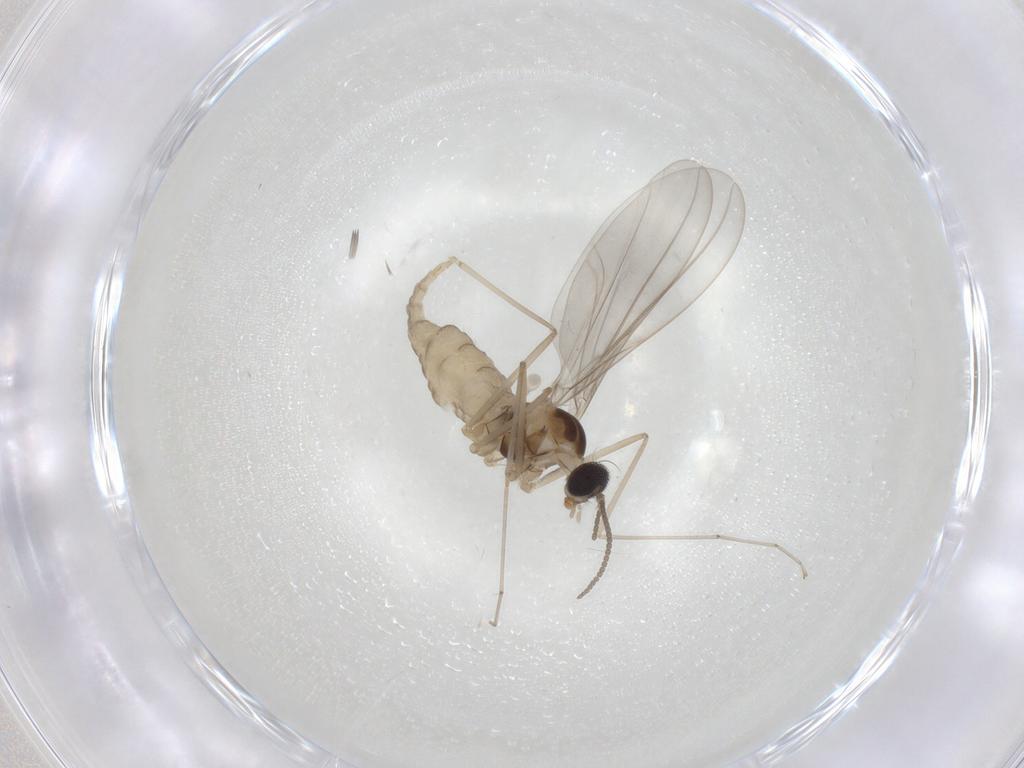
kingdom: Animalia
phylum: Arthropoda
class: Insecta
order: Diptera
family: Cecidomyiidae
